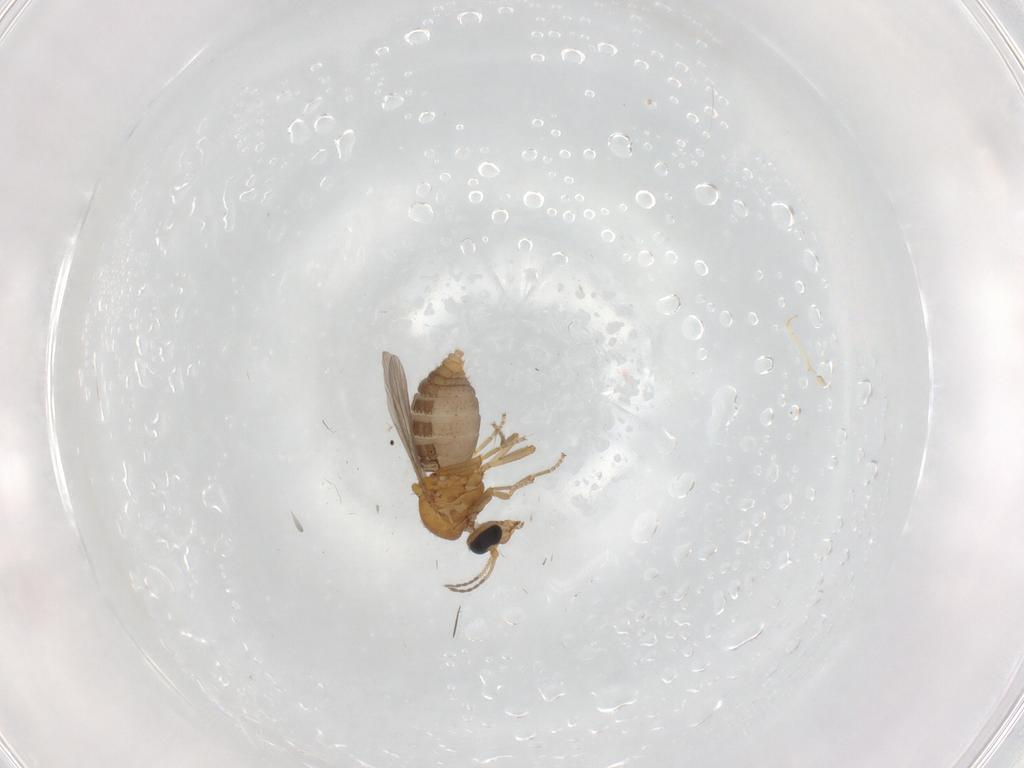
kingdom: Animalia
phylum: Arthropoda
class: Insecta
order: Diptera
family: Ceratopogonidae
